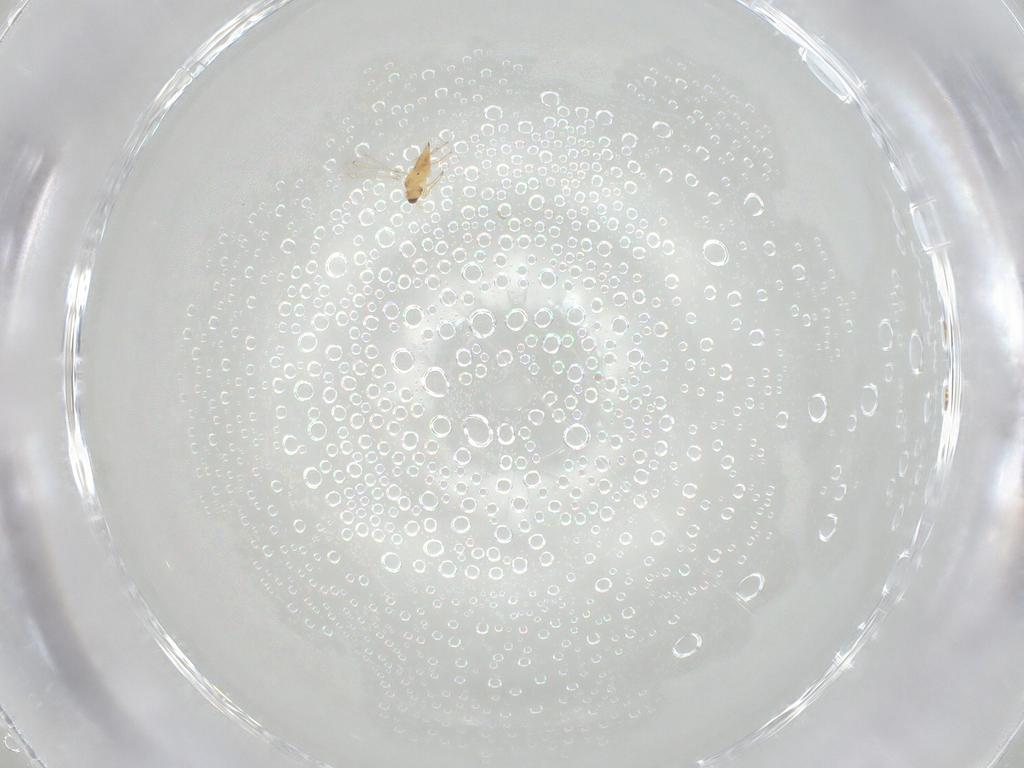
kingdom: Animalia
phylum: Arthropoda
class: Insecta
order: Hymenoptera
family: Mymaridae
